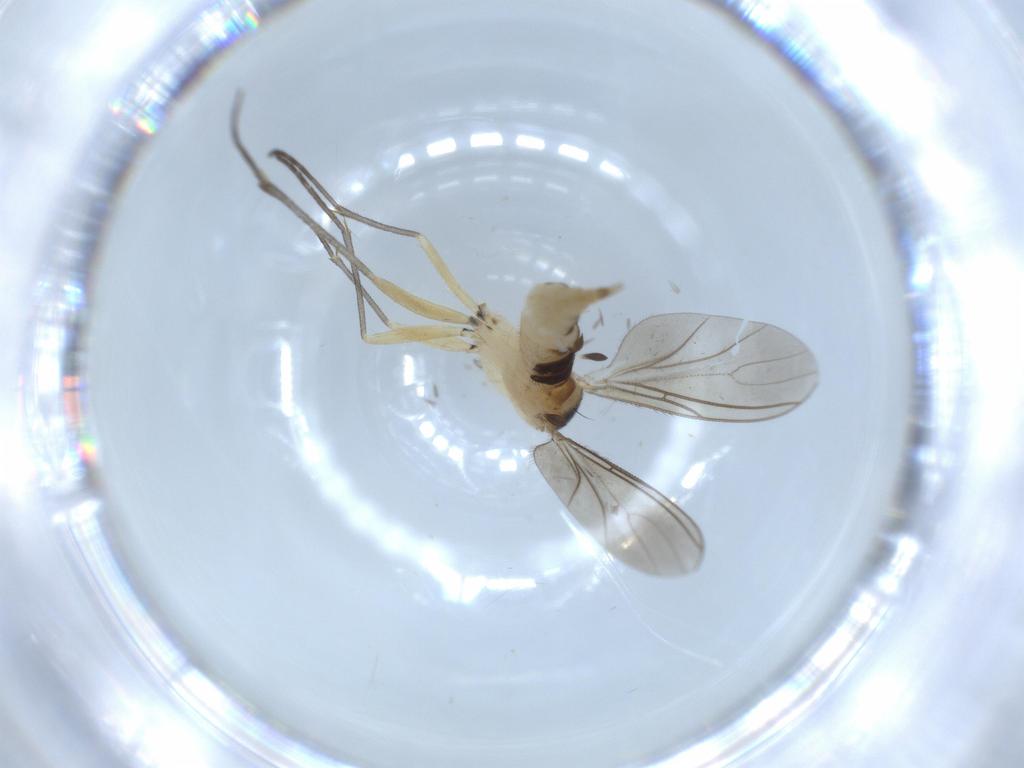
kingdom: Animalia
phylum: Arthropoda
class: Insecta
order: Diptera
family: Sciaridae
